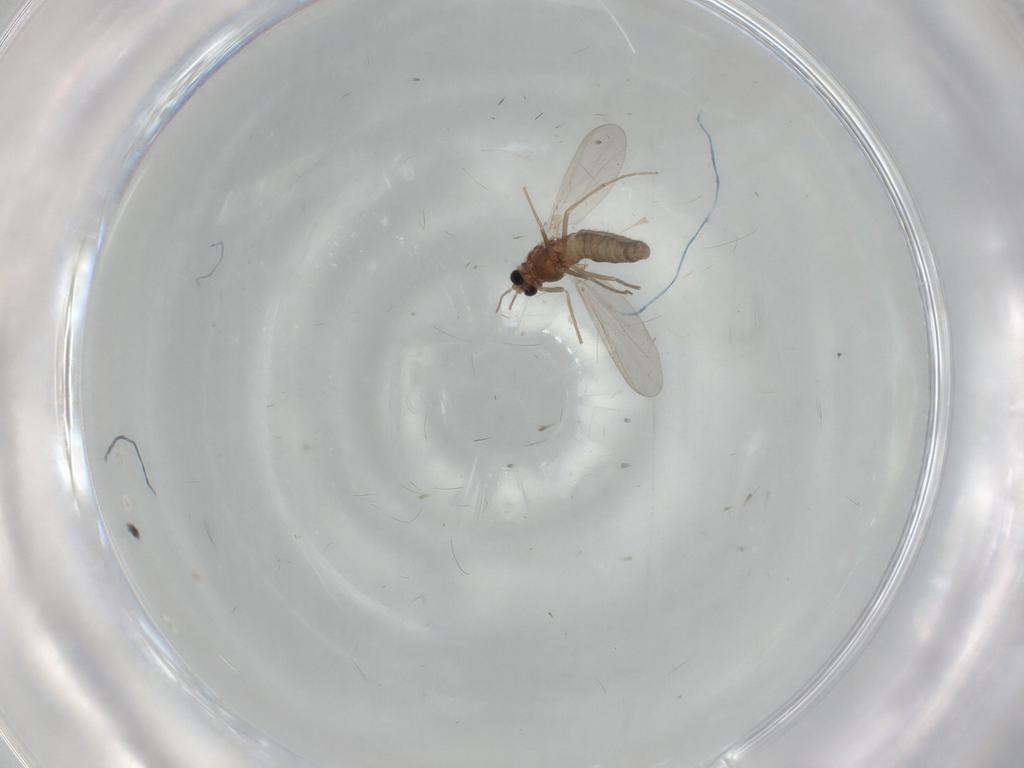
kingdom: Animalia
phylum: Arthropoda
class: Insecta
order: Diptera
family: Chironomidae
